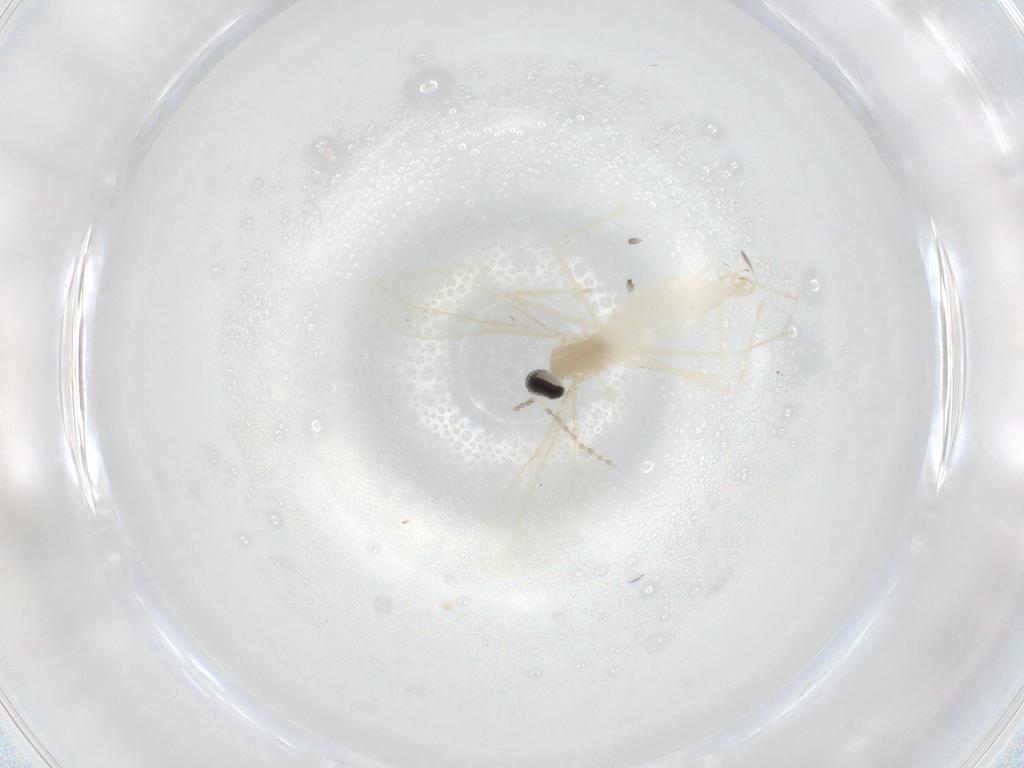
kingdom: Animalia
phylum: Arthropoda
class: Insecta
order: Diptera
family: Cecidomyiidae
